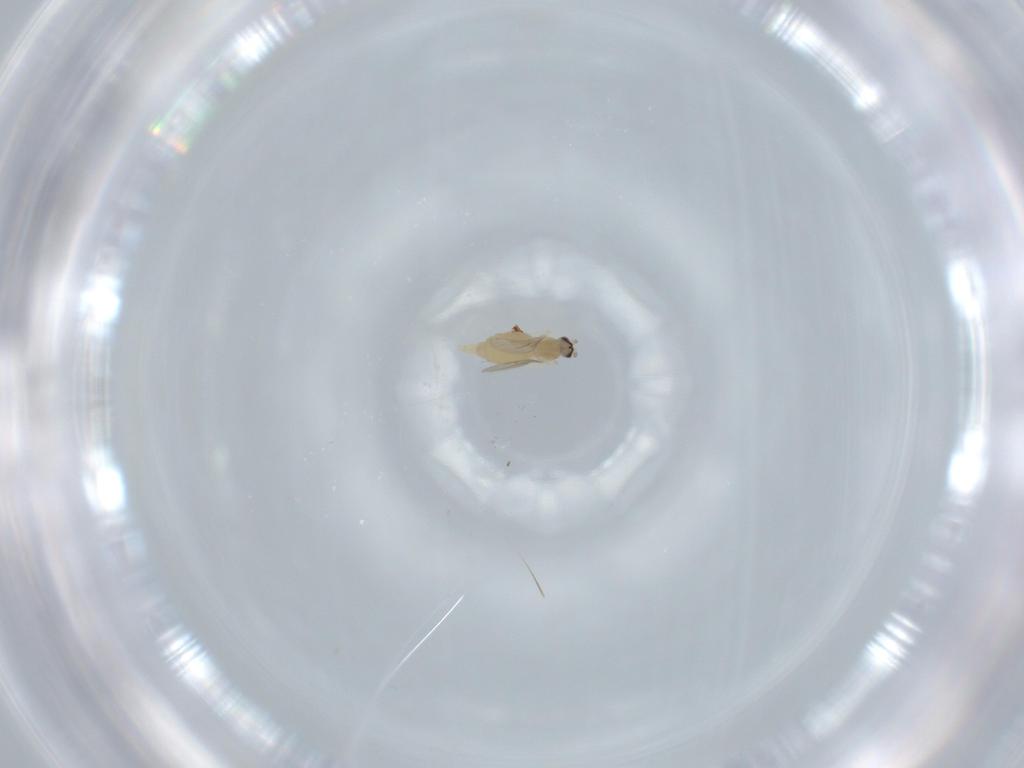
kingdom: Animalia
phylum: Arthropoda
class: Insecta
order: Diptera
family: Cecidomyiidae
